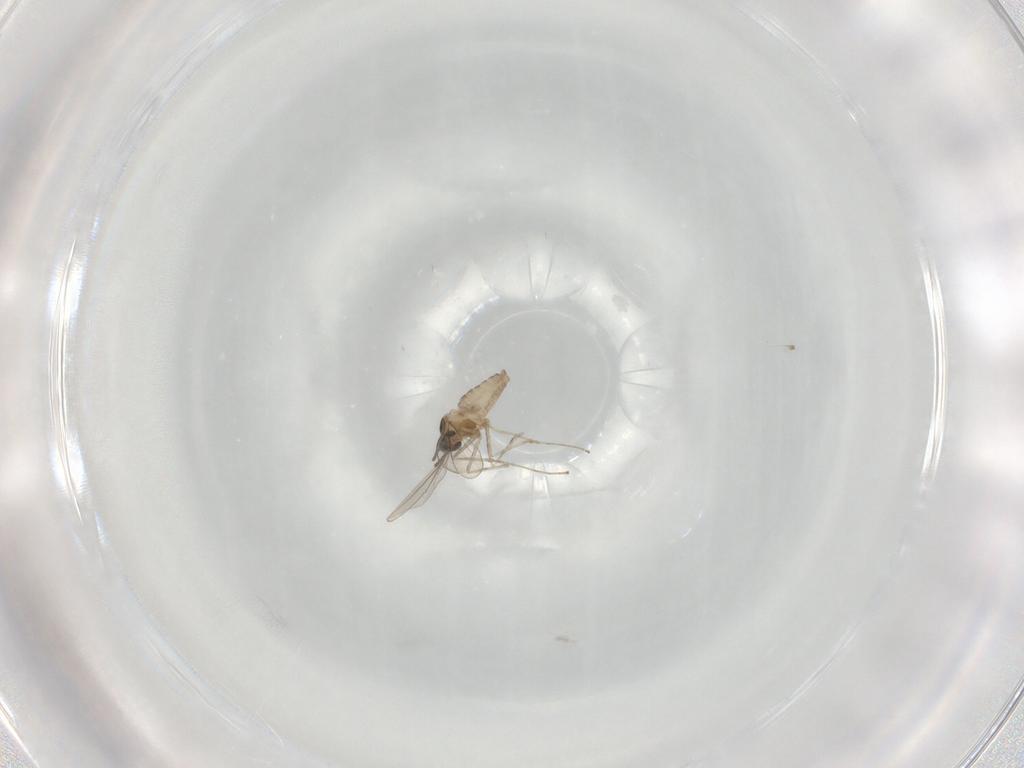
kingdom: Animalia
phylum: Arthropoda
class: Insecta
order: Diptera
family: Cecidomyiidae
